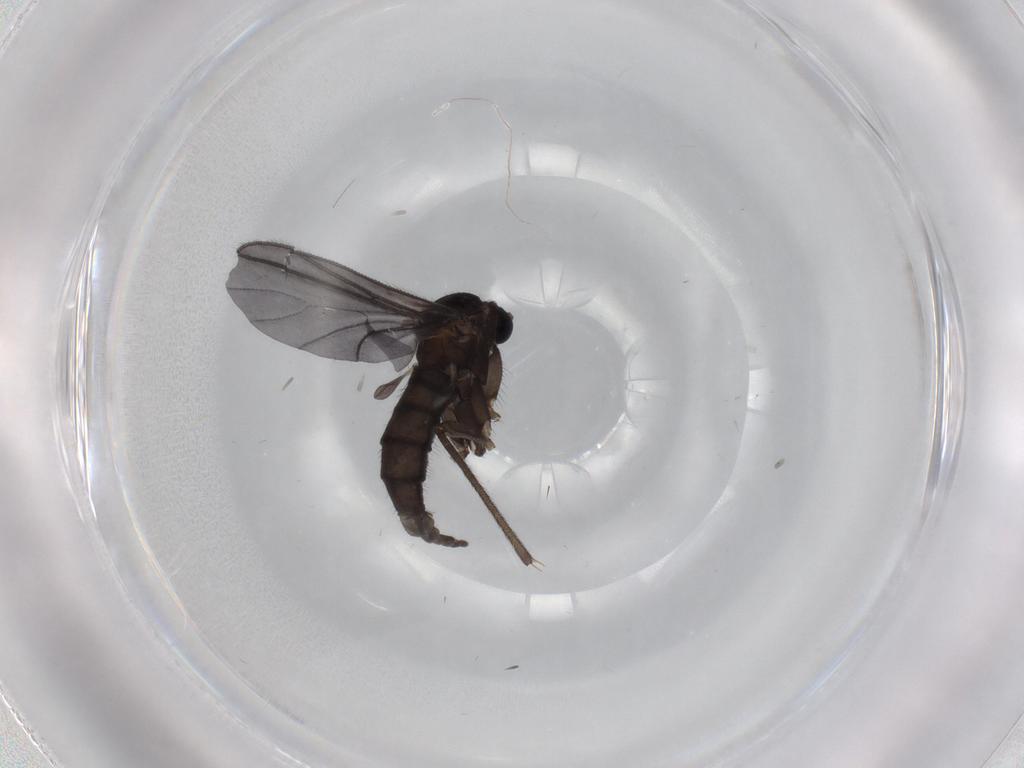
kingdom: Animalia
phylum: Arthropoda
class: Insecta
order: Diptera
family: Sciaridae
